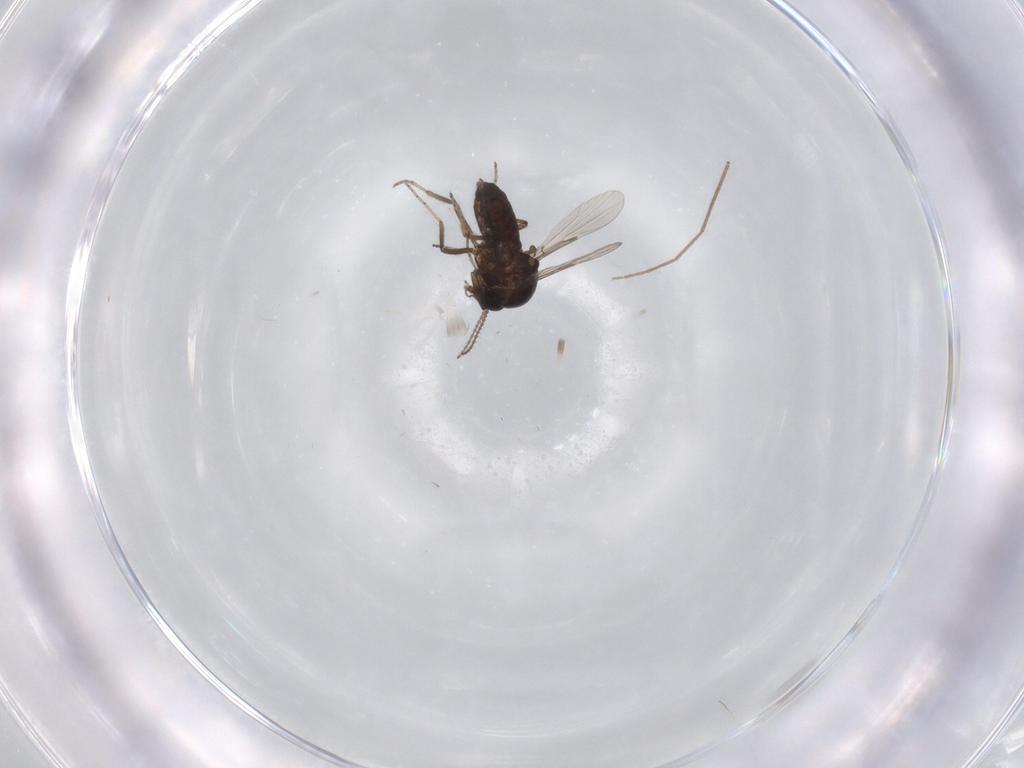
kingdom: Animalia
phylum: Arthropoda
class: Insecta
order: Diptera
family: Ceratopogonidae
